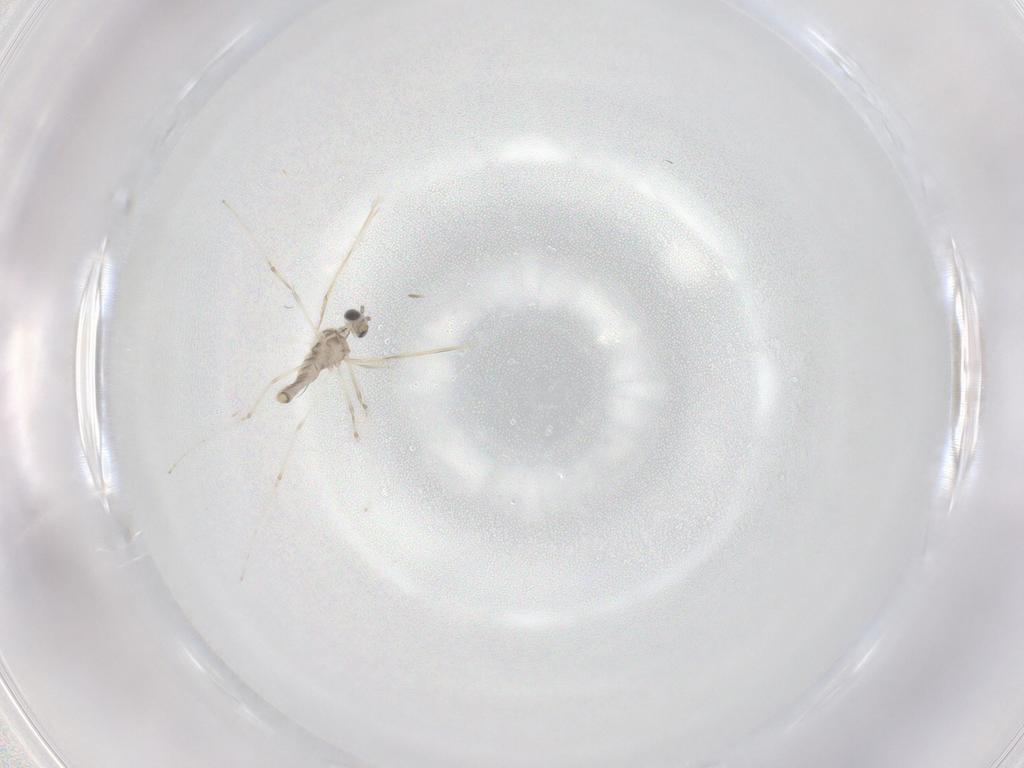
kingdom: Animalia
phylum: Arthropoda
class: Insecta
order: Diptera
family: Cecidomyiidae
